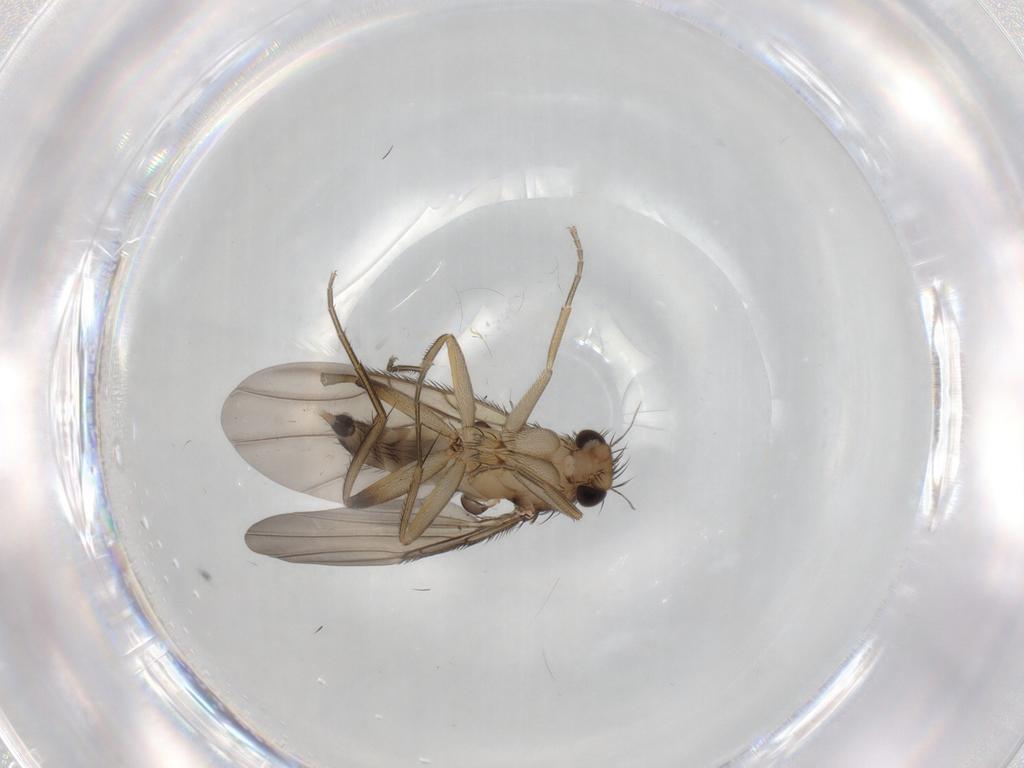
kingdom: Animalia
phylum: Arthropoda
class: Insecta
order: Diptera
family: Phoridae
